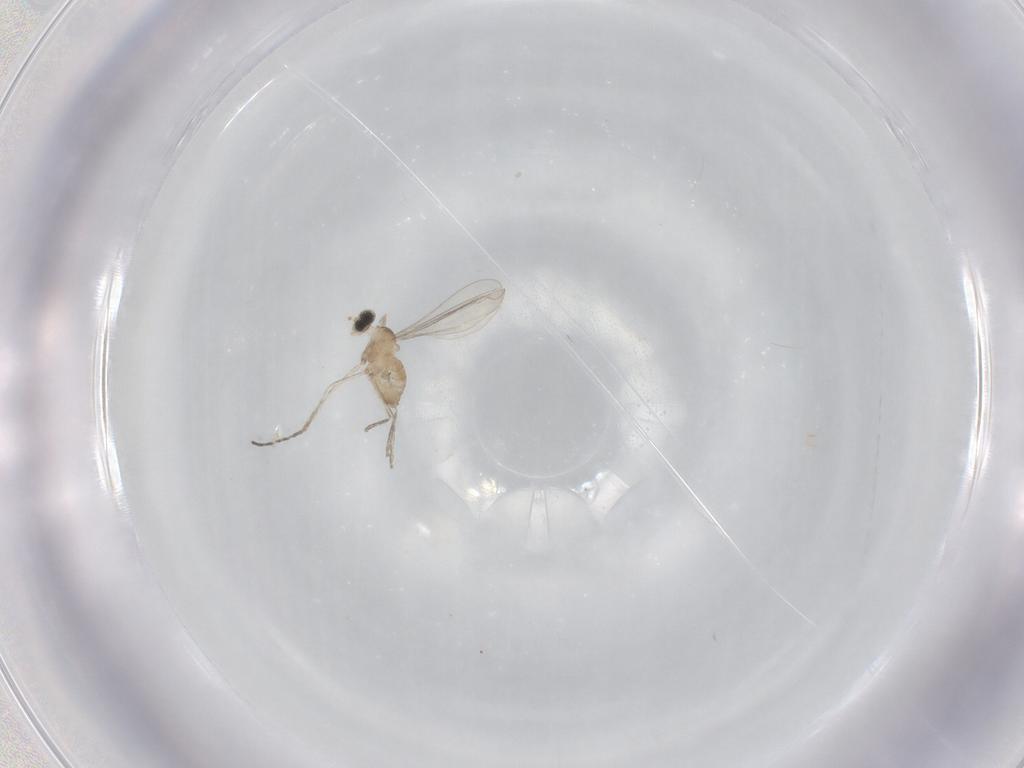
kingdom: Animalia
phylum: Arthropoda
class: Insecta
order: Diptera
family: Cecidomyiidae
